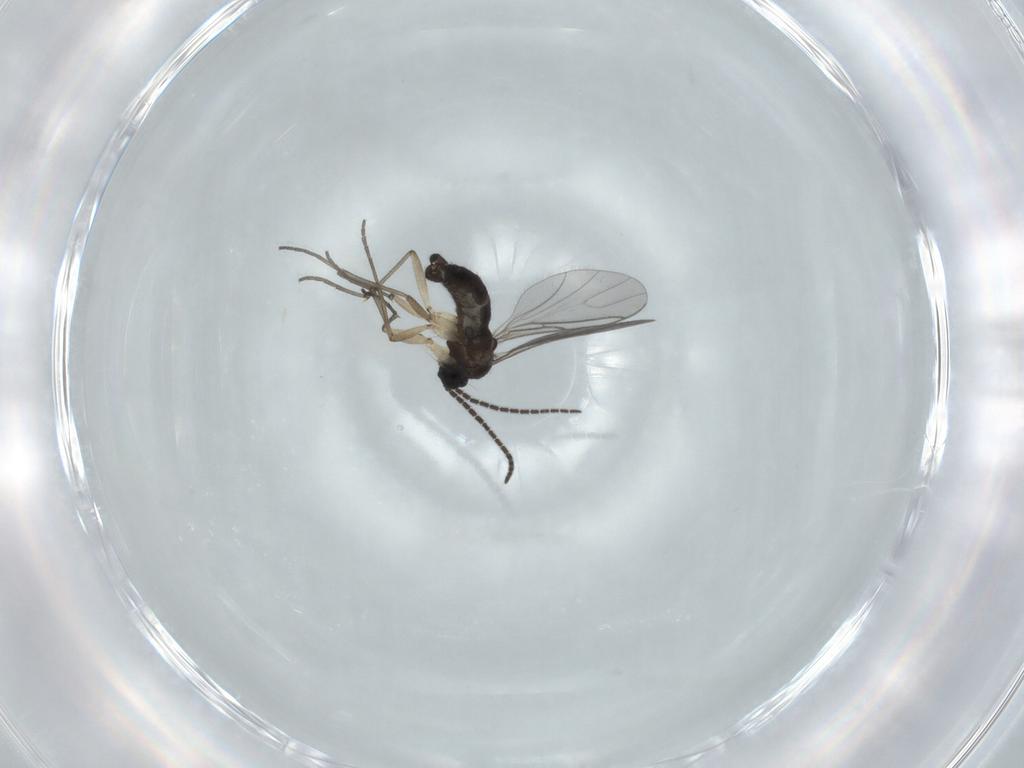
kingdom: Animalia
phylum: Arthropoda
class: Insecta
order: Diptera
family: Sciaridae
